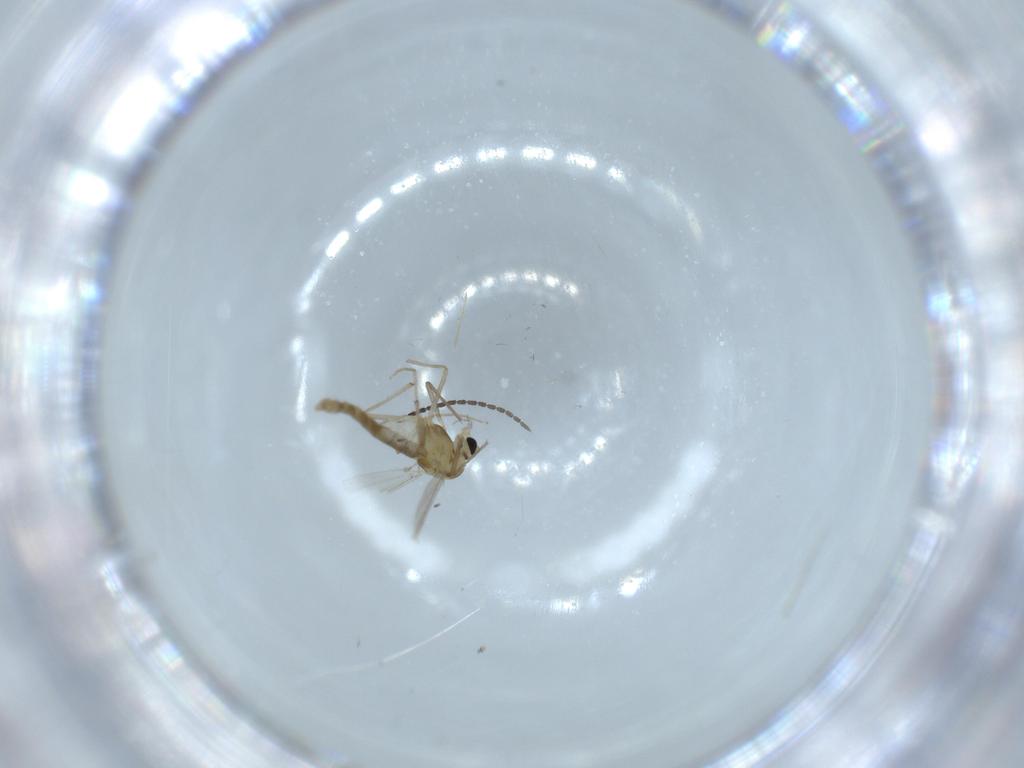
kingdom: Animalia
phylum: Arthropoda
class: Insecta
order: Diptera
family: Chironomidae
